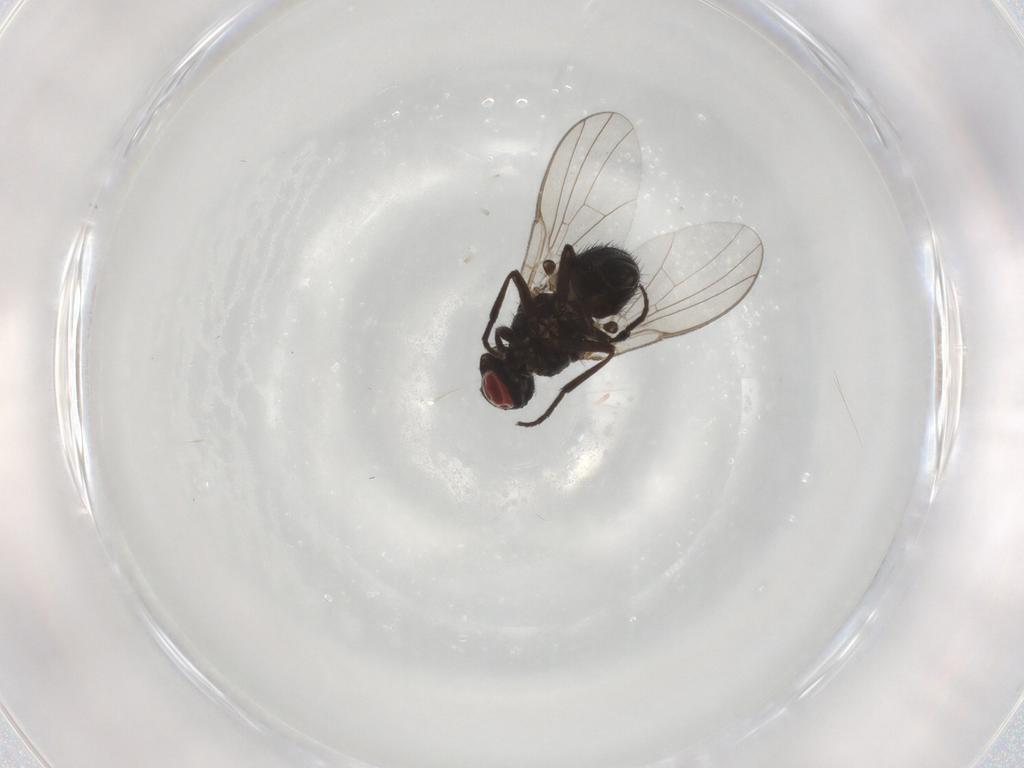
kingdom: Animalia
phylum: Arthropoda
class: Insecta
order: Diptera
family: Agromyzidae
